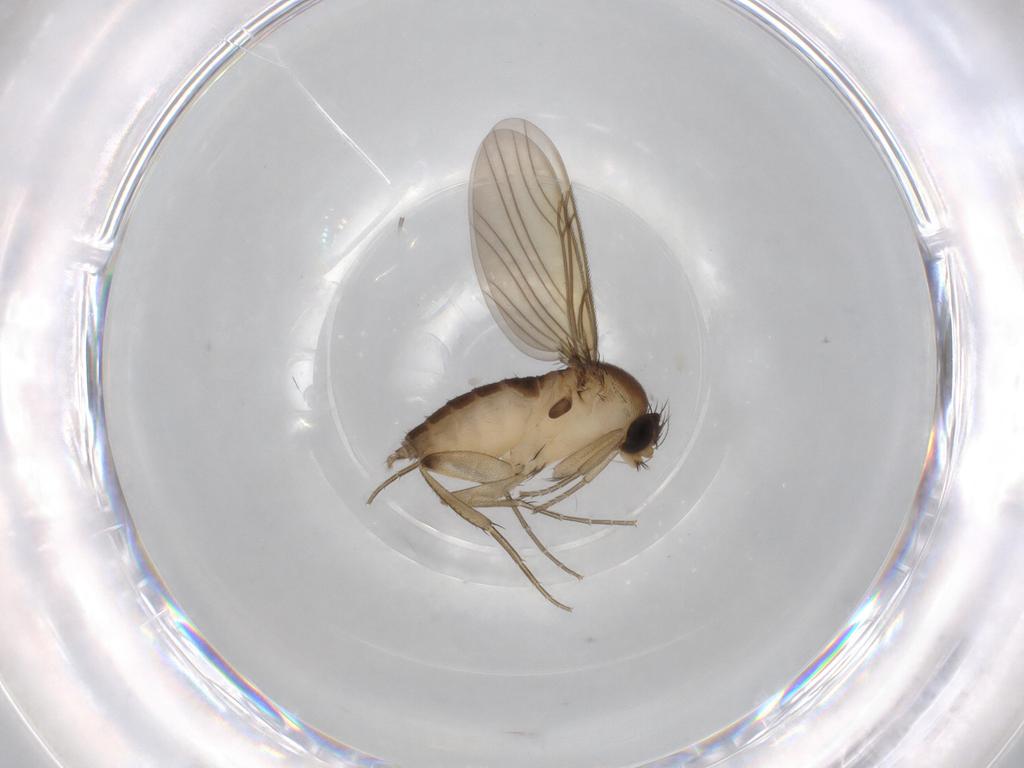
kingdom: Animalia
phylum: Arthropoda
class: Insecta
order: Diptera
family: Phoridae
